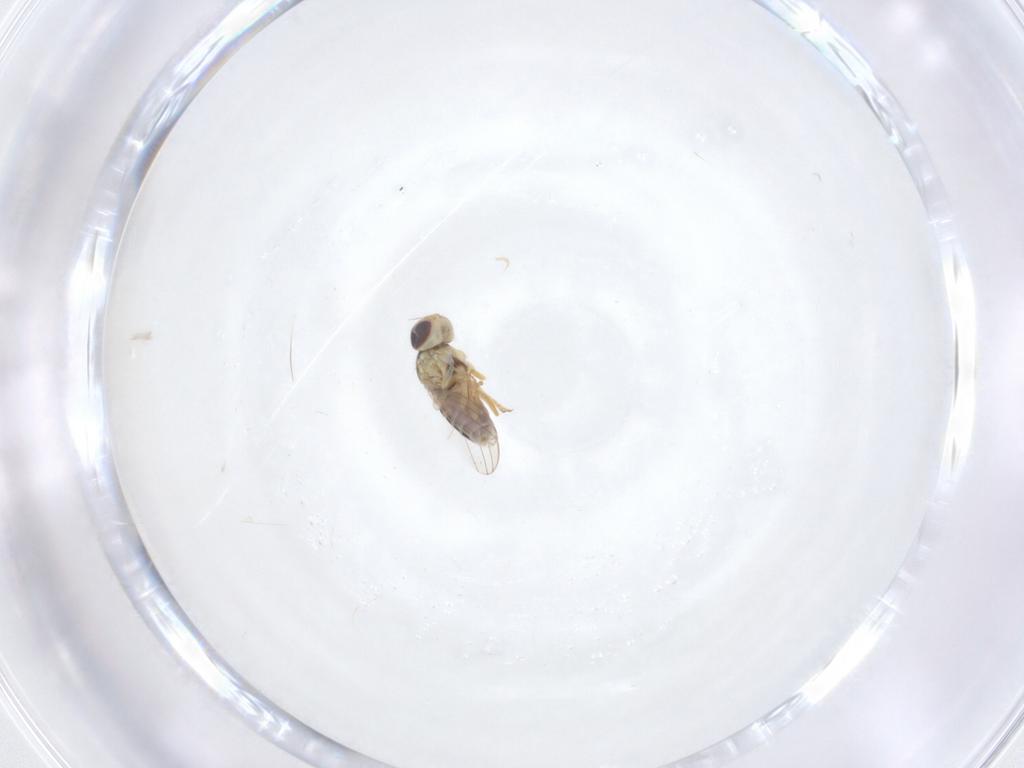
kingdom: Animalia
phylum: Arthropoda
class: Insecta
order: Diptera
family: Chyromyidae
